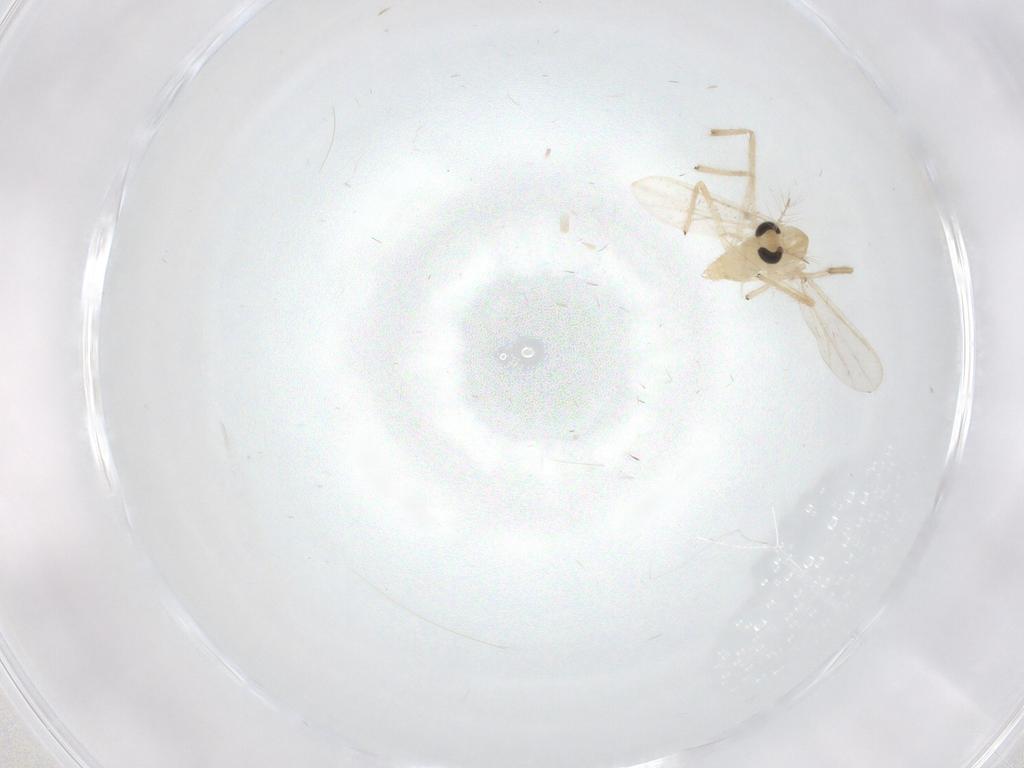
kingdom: Animalia
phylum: Arthropoda
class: Insecta
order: Diptera
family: Chironomidae
